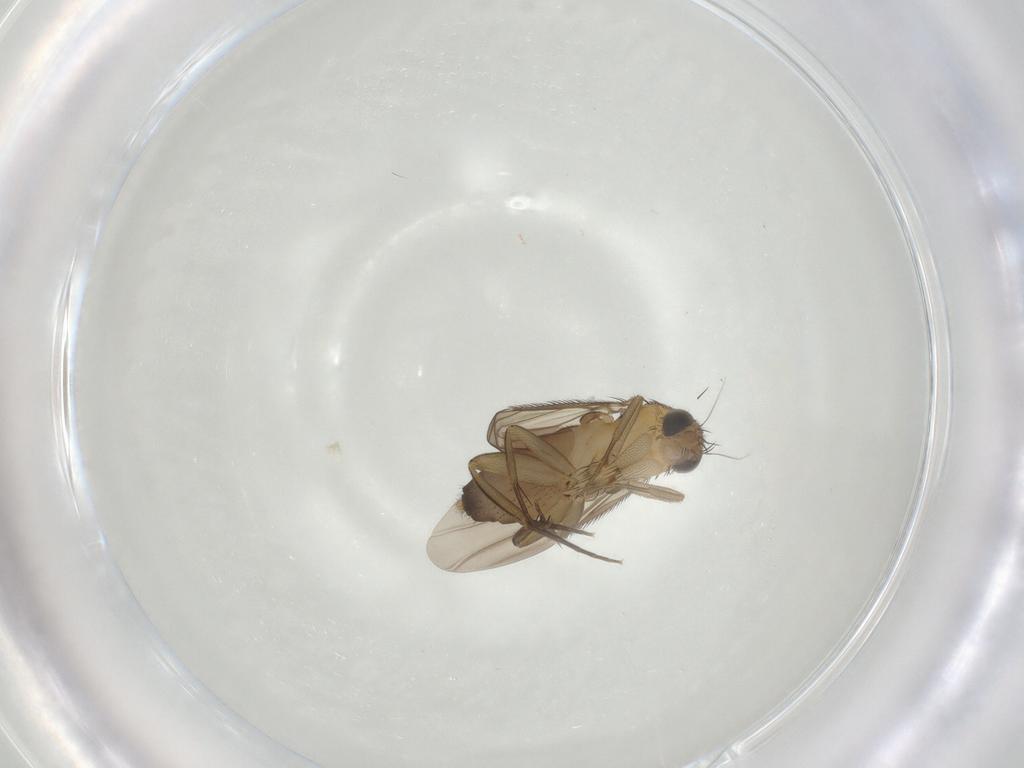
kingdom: Animalia
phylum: Arthropoda
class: Insecta
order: Diptera
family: Phoridae
